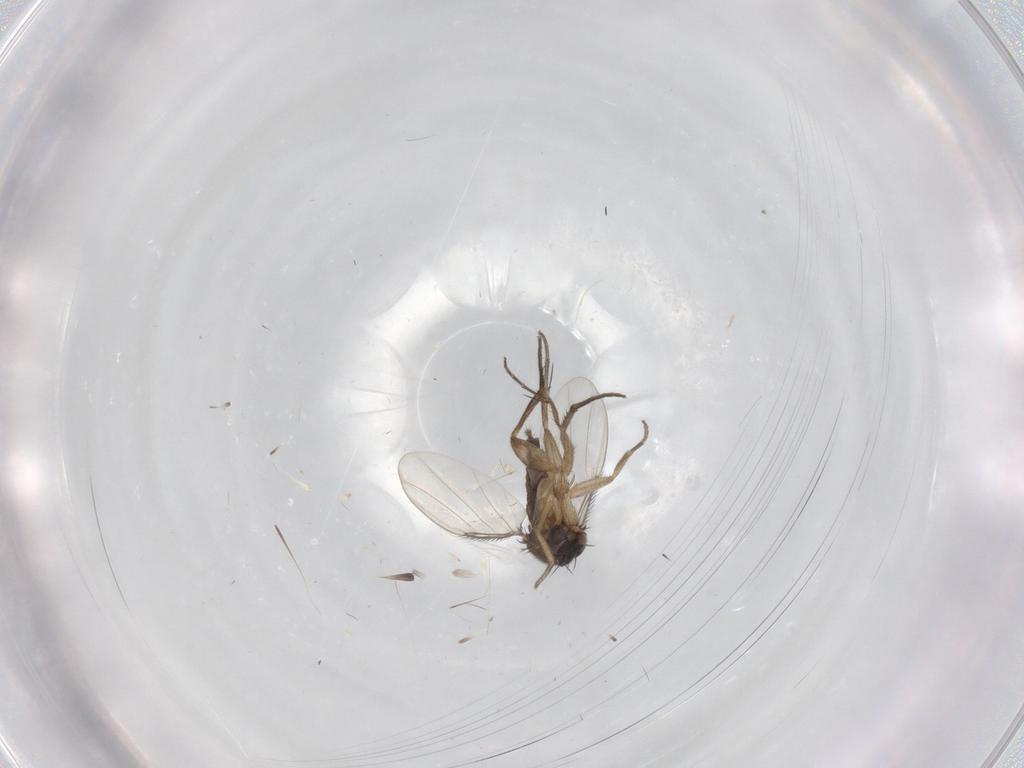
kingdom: Animalia
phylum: Arthropoda
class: Insecta
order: Diptera
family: Phoridae
